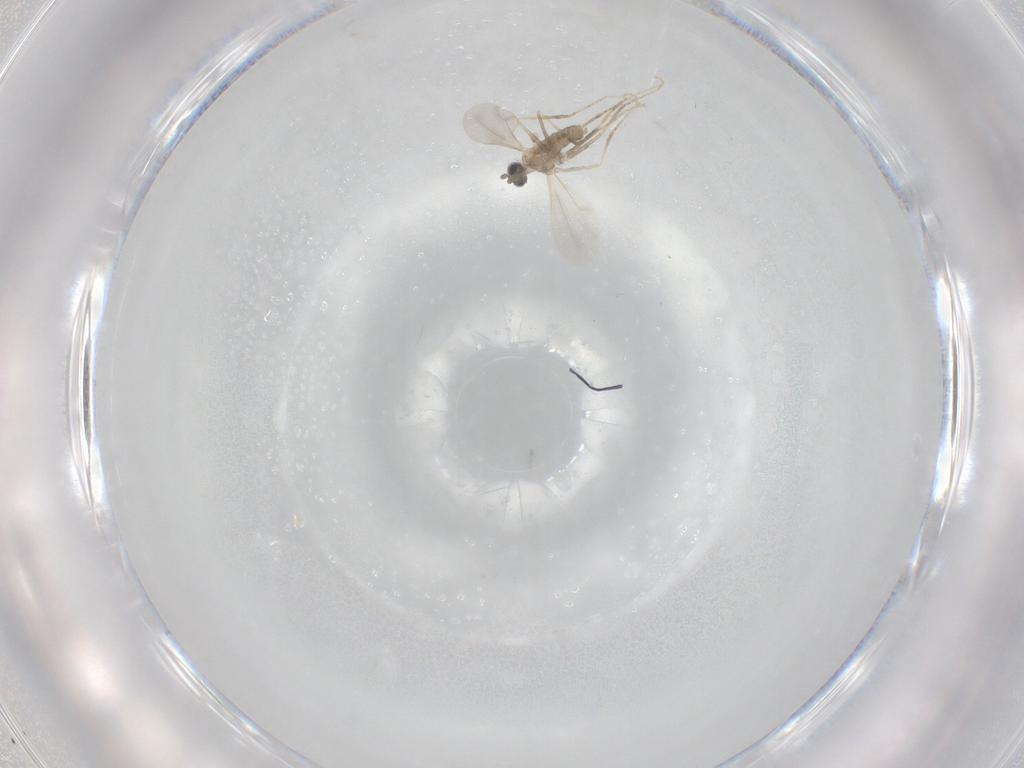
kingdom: Animalia
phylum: Arthropoda
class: Insecta
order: Diptera
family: Cecidomyiidae
